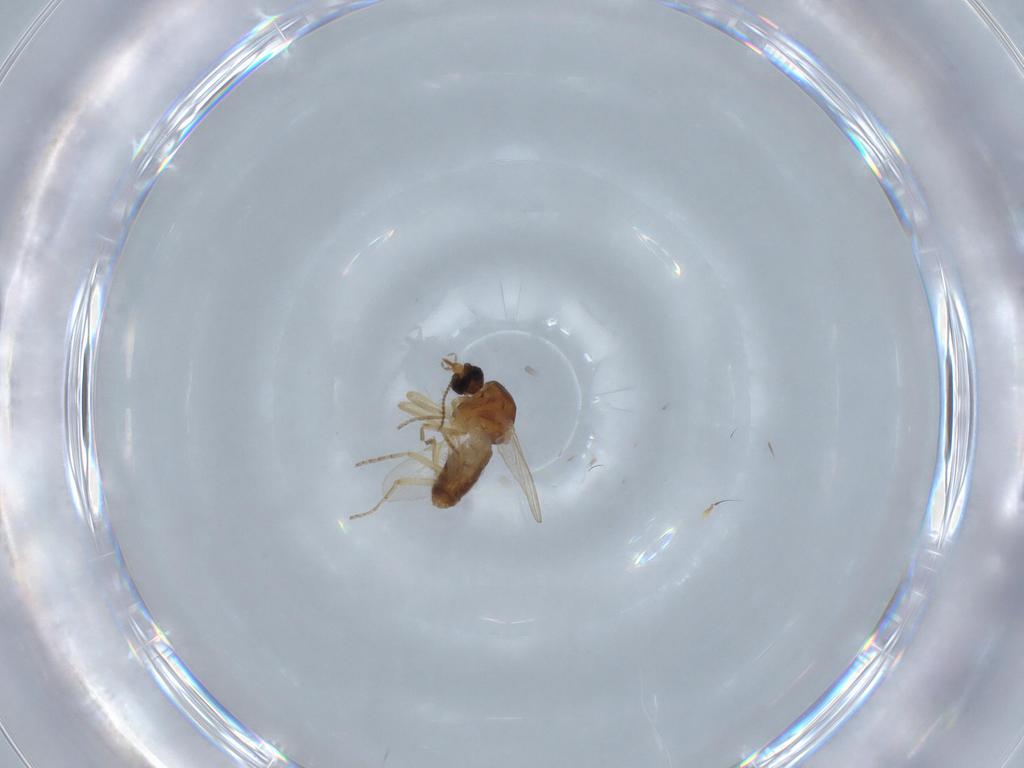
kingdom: Animalia
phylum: Arthropoda
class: Insecta
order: Diptera
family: Ceratopogonidae
